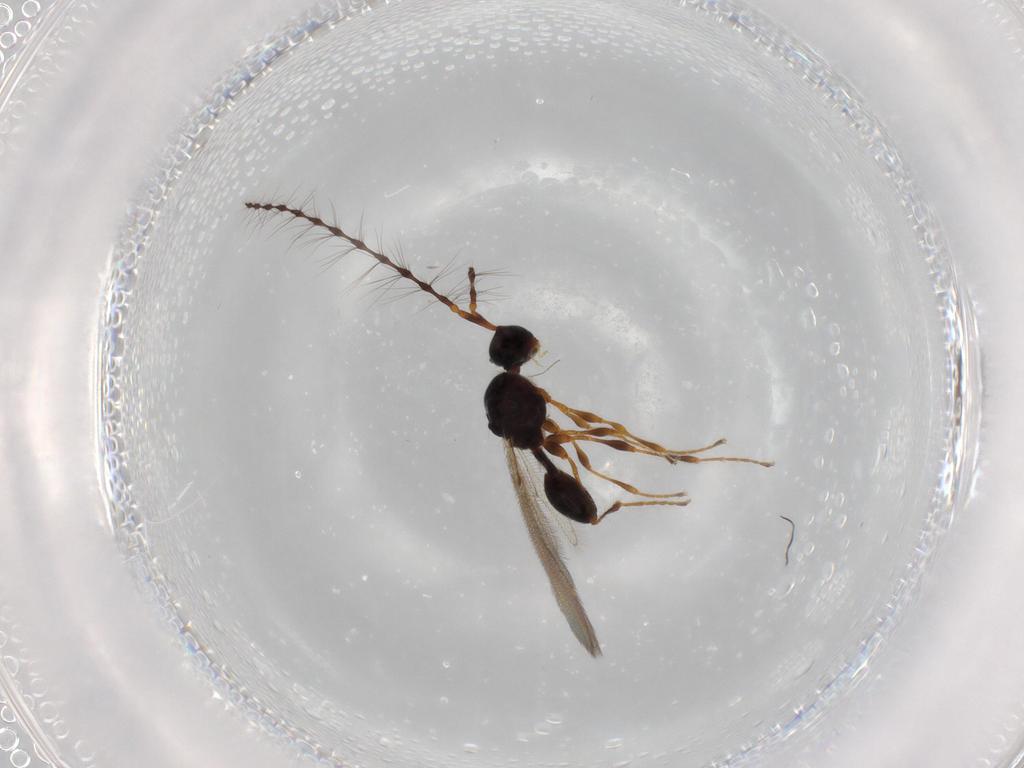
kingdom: Animalia
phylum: Arthropoda
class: Insecta
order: Hymenoptera
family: Diapriidae
